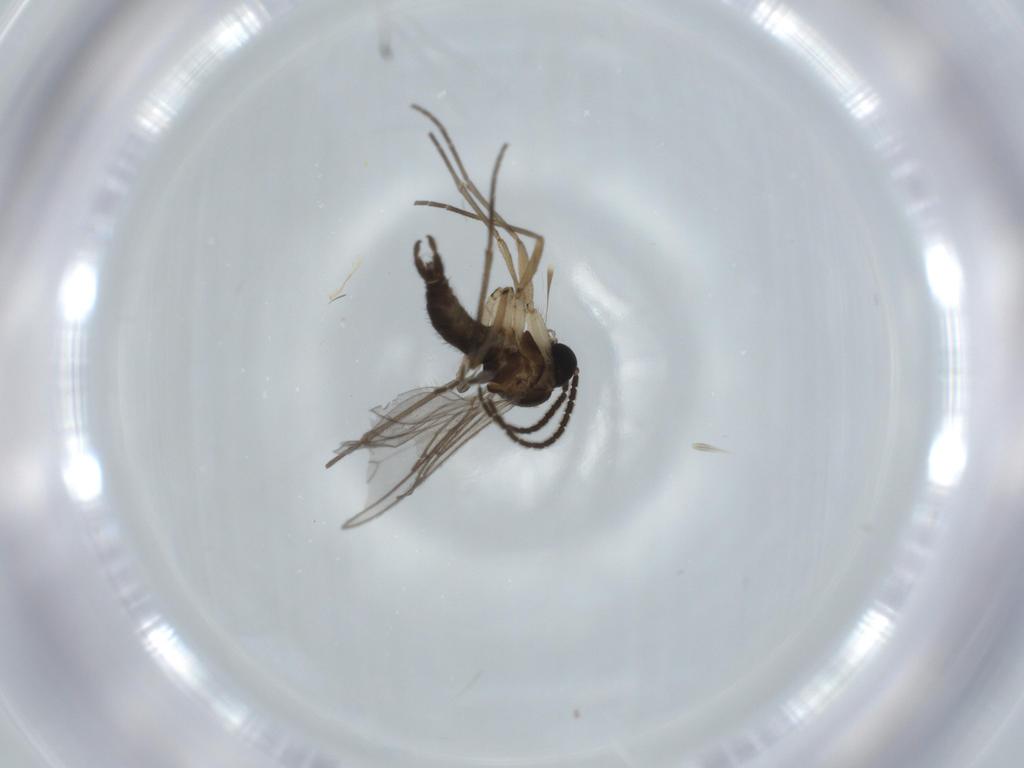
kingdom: Animalia
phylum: Arthropoda
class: Insecta
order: Diptera
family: Sciaridae
